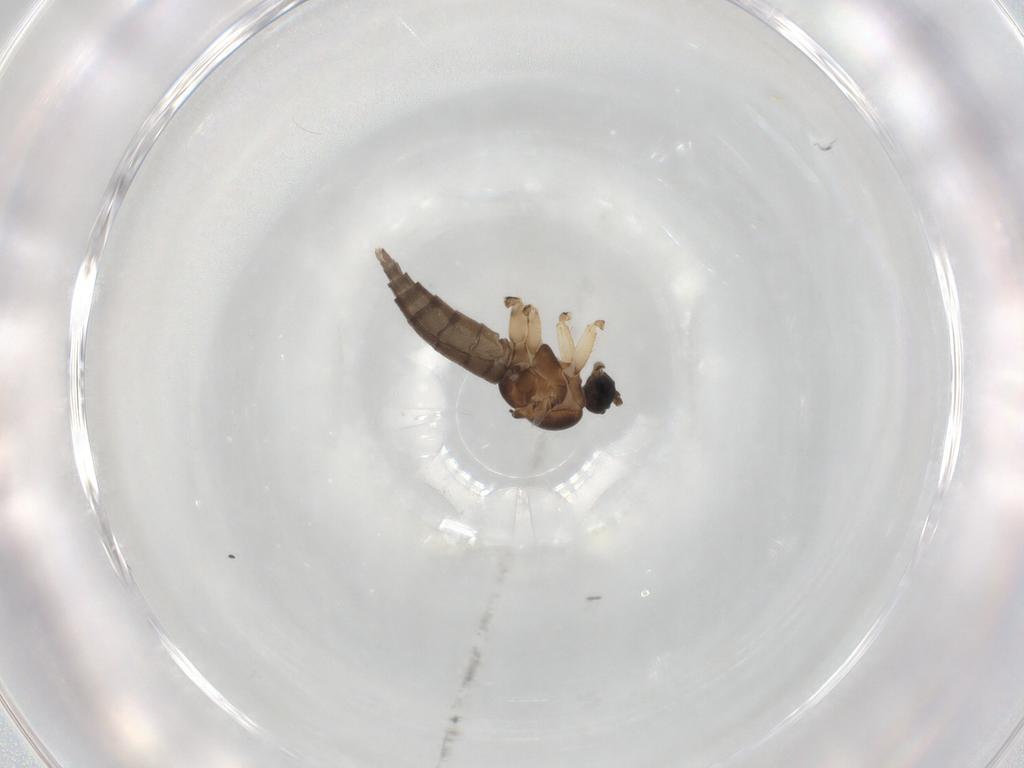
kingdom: Animalia
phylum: Arthropoda
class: Insecta
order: Diptera
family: Sciaridae
